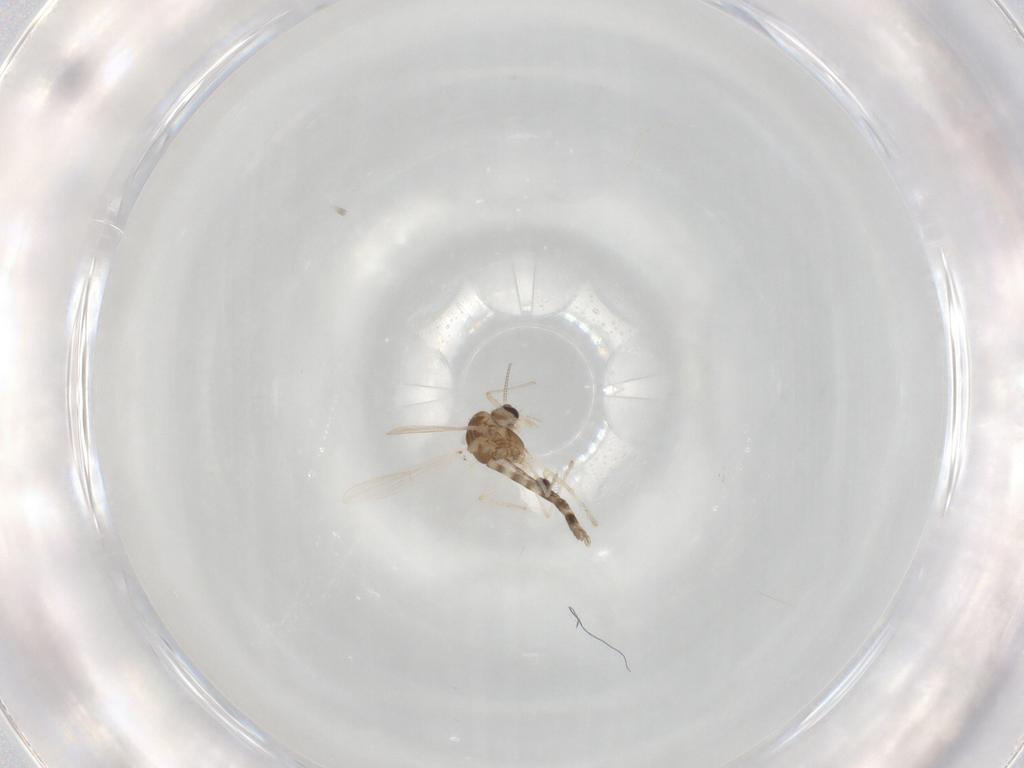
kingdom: Animalia
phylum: Arthropoda
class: Insecta
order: Diptera
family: Chironomidae
